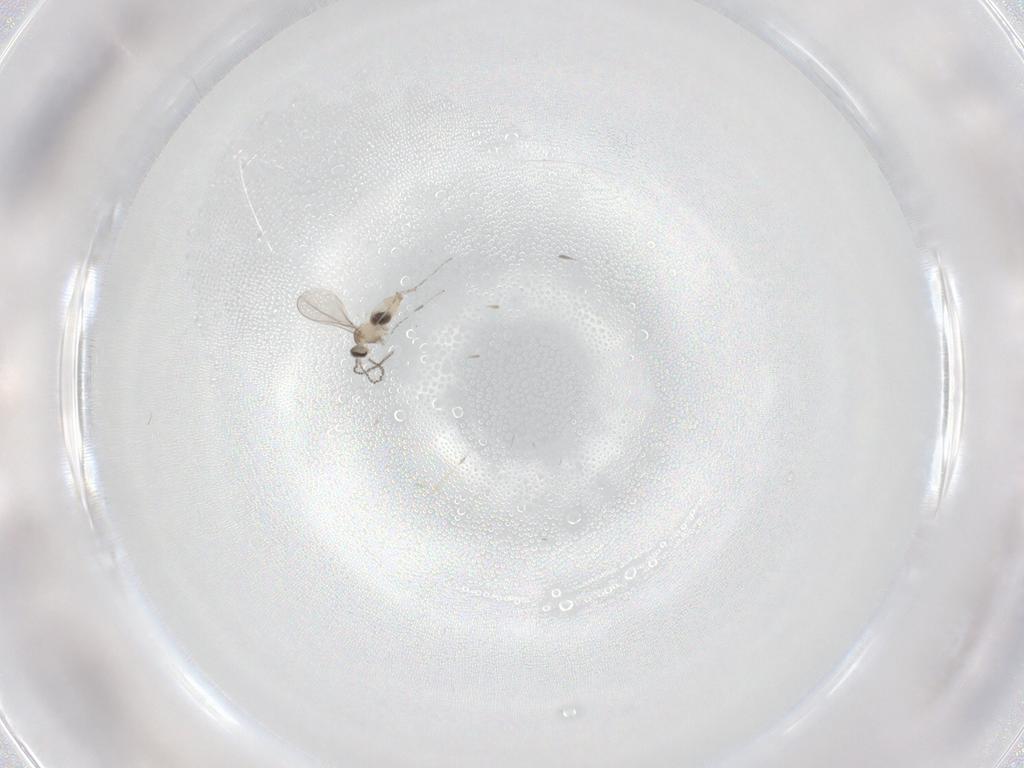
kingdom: Animalia
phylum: Arthropoda
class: Insecta
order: Diptera
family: Cecidomyiidae
